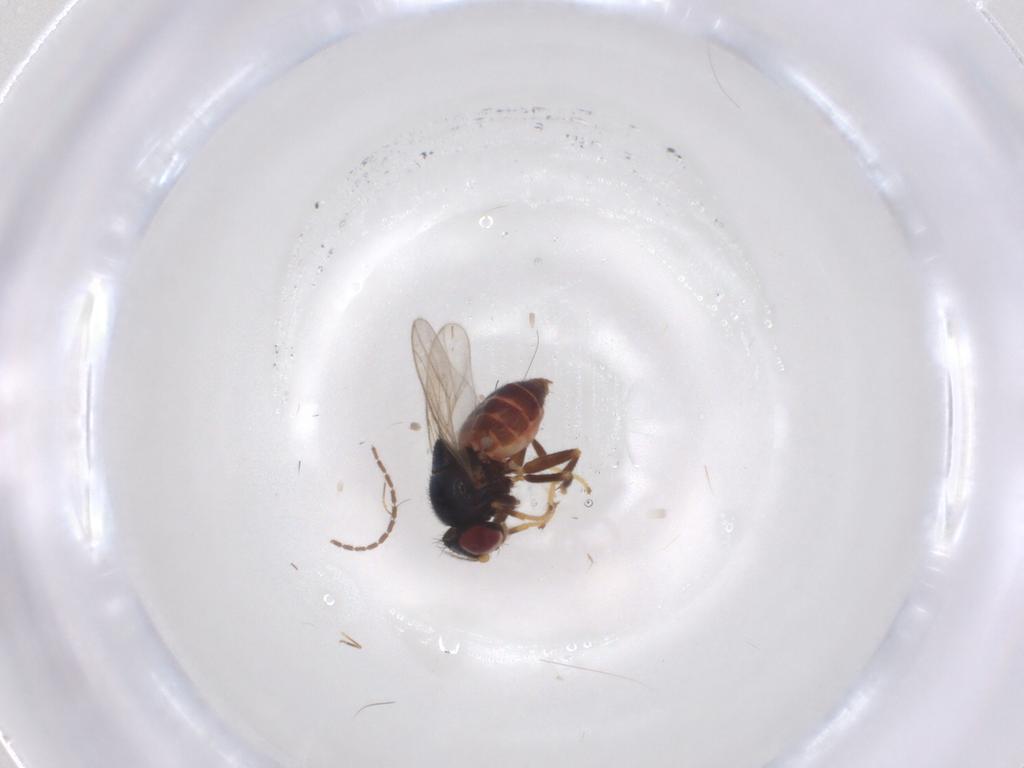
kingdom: Animalia
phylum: Arthropoda
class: Insecta
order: Diptera
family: Chloropidae
